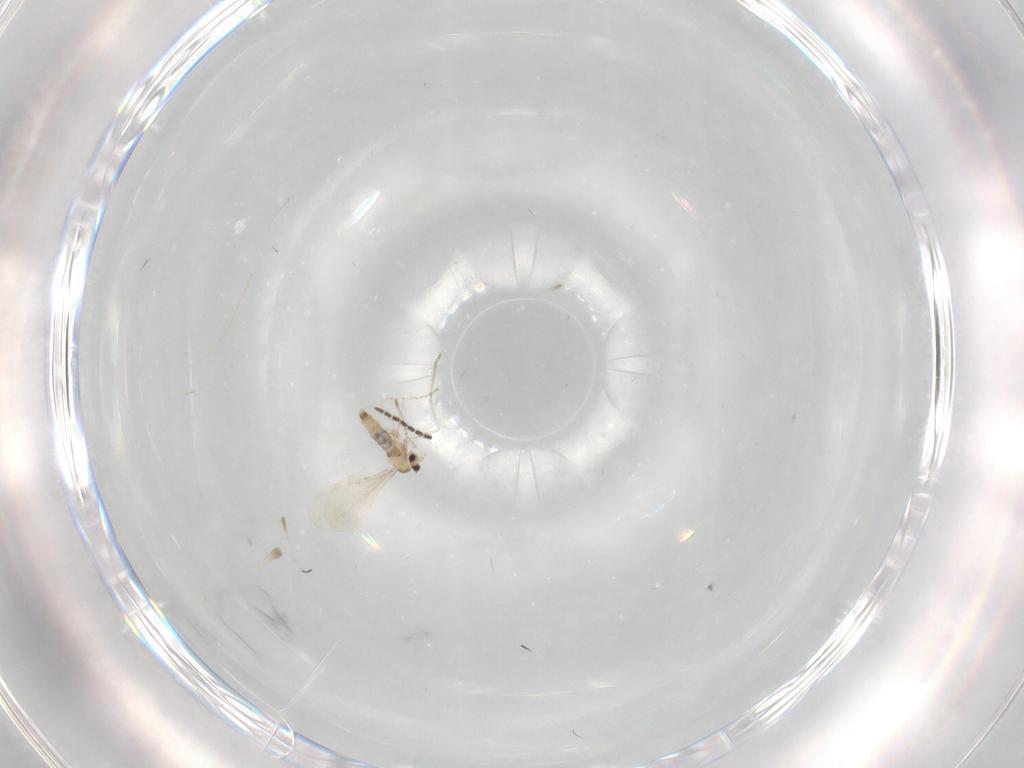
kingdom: Animalia
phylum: Arthropoda
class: Insecta
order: Diptera
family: Cecidomyiidae
